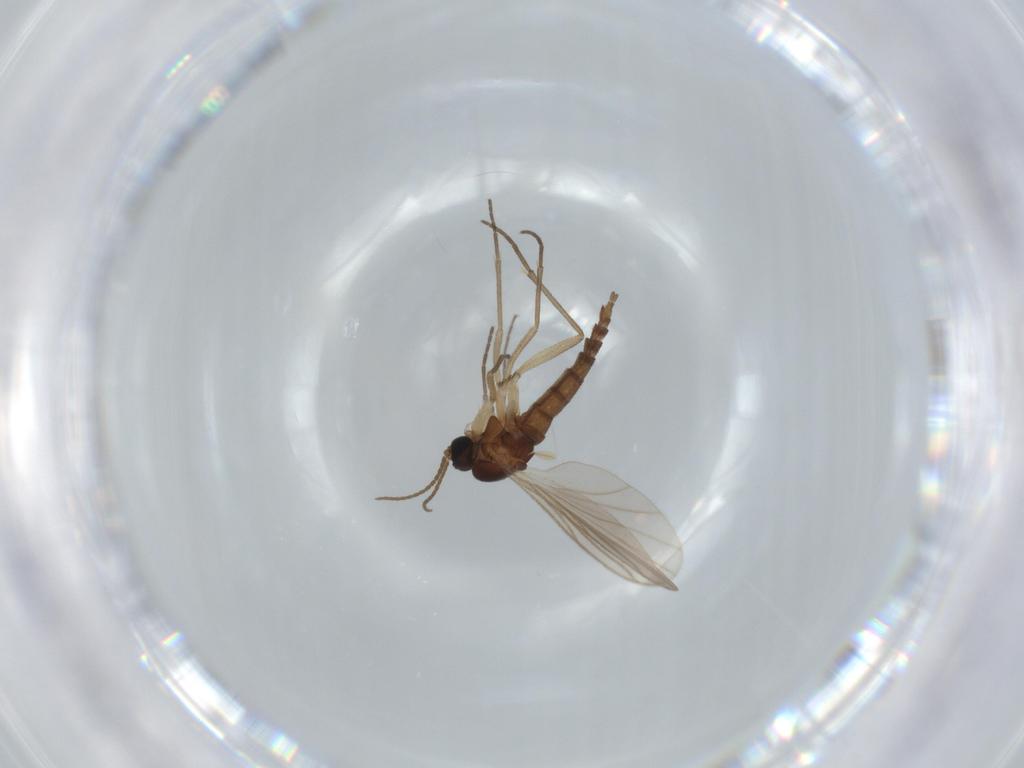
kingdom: Animalia
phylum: Arthropoda
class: Insecta
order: Diptera
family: Sciaridae
